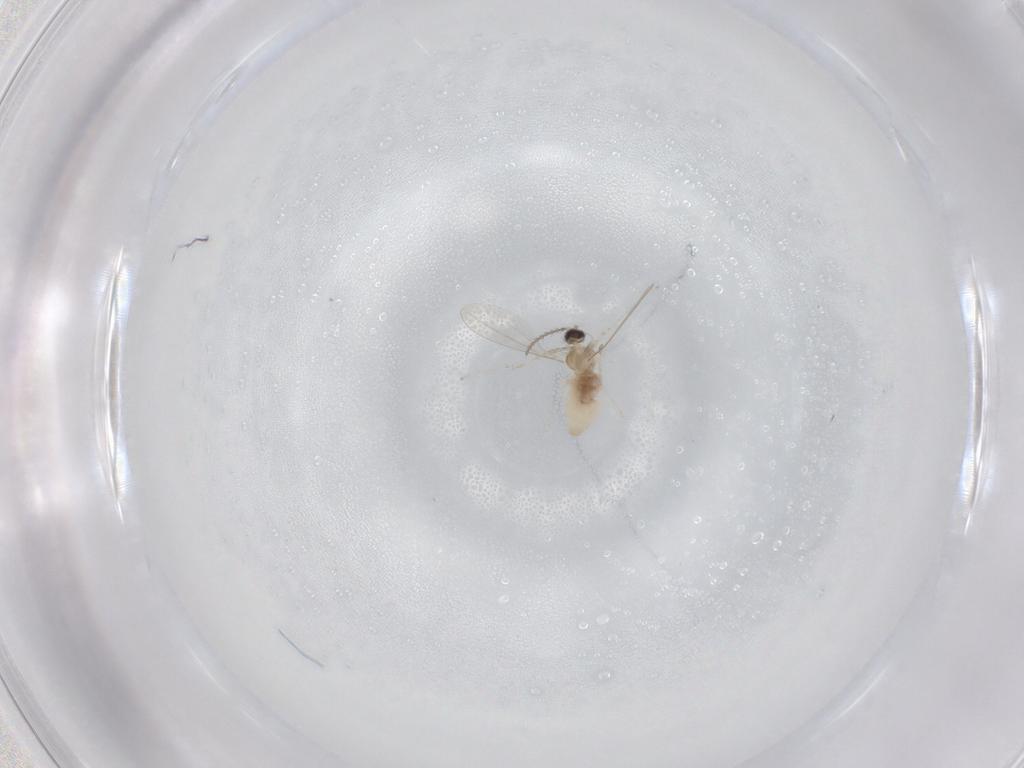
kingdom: Animalia
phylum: Arthropoda
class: Insecta
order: Diptera
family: Cecidomyiidae
